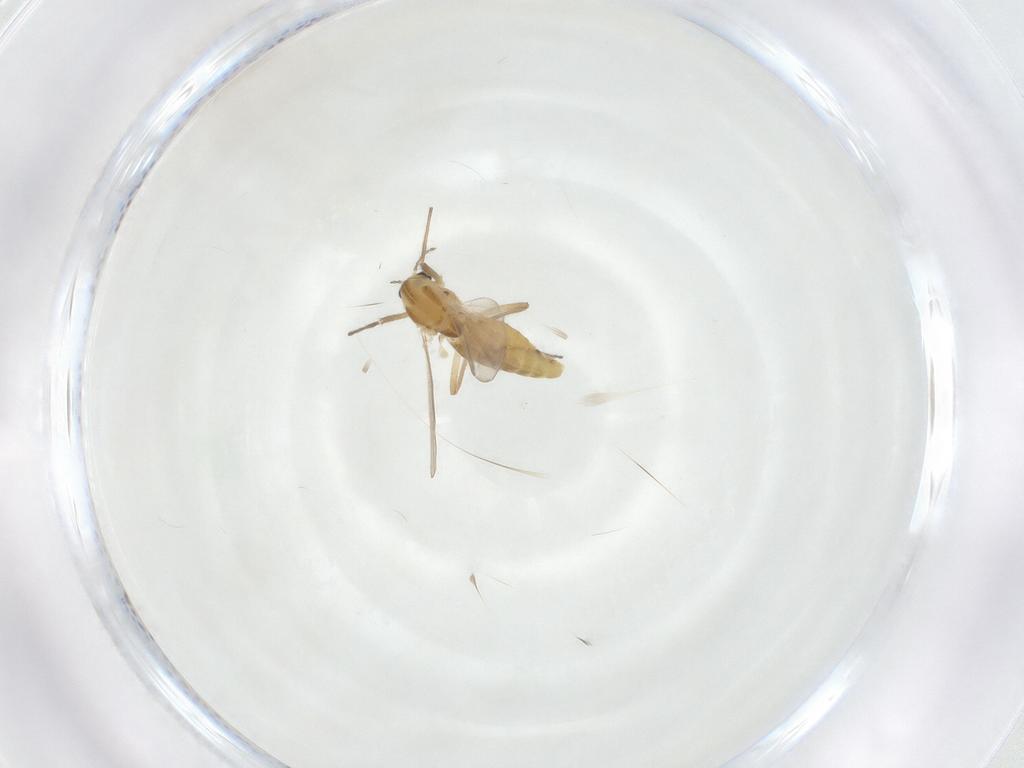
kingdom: Animalia
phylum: Arthropoda
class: Insecta
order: Diptera
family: Chironomidae
